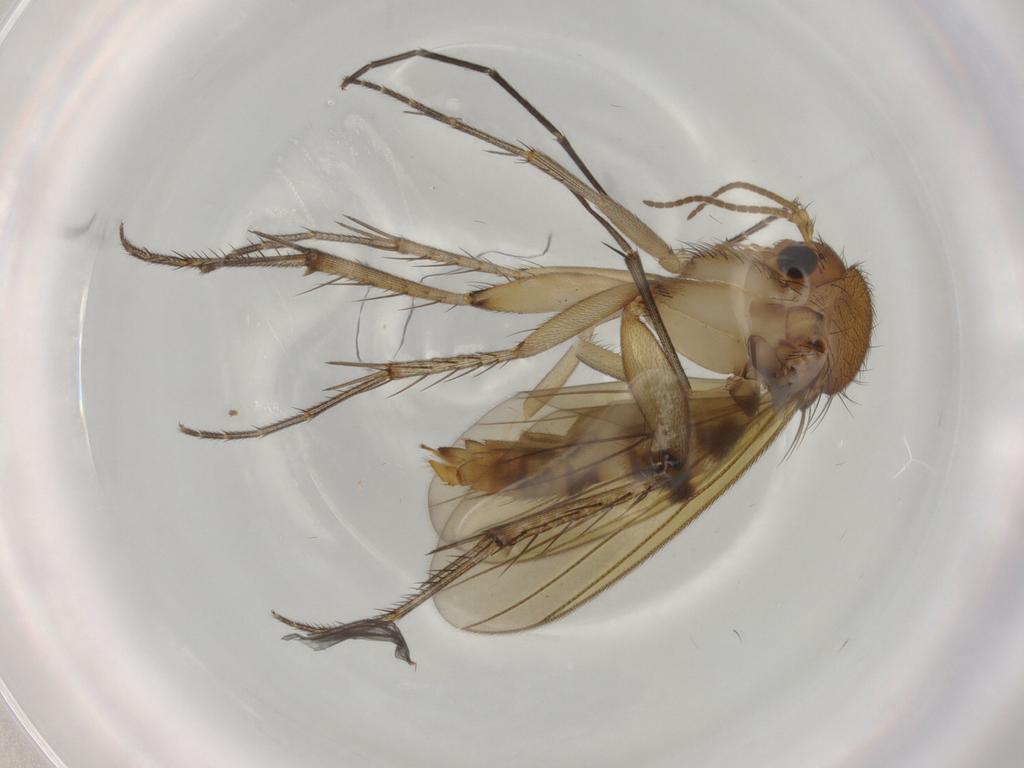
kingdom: Animalia
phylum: Arthropoda
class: Insecta
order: Diptera
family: Mycetophilidae
